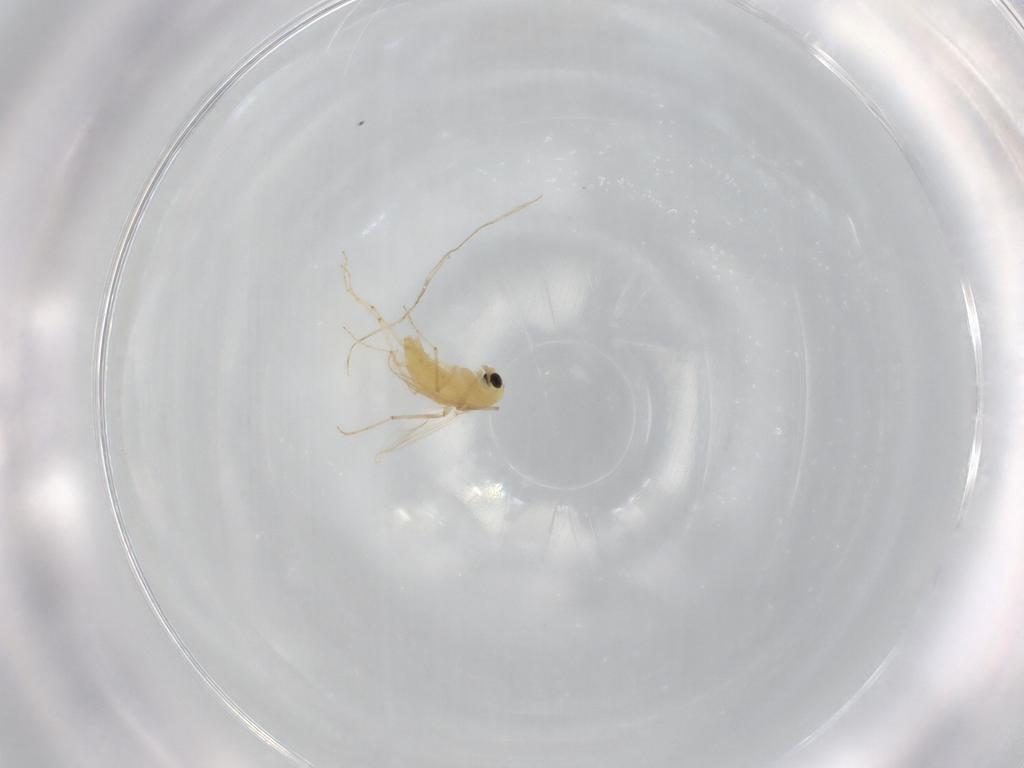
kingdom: Animalia
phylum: Arthropoda
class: Insecta
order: Diptera
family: Chironomidae
